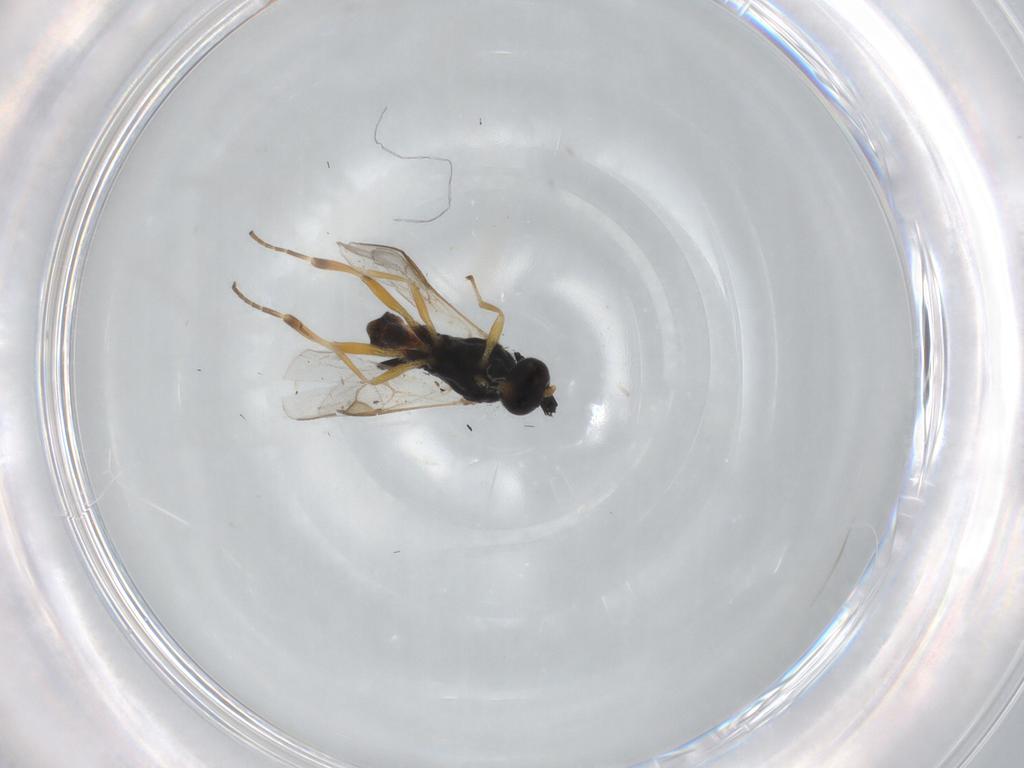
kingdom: Animalia
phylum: Arthropoda
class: Insecta
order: Hymenoptera
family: Braconidae
